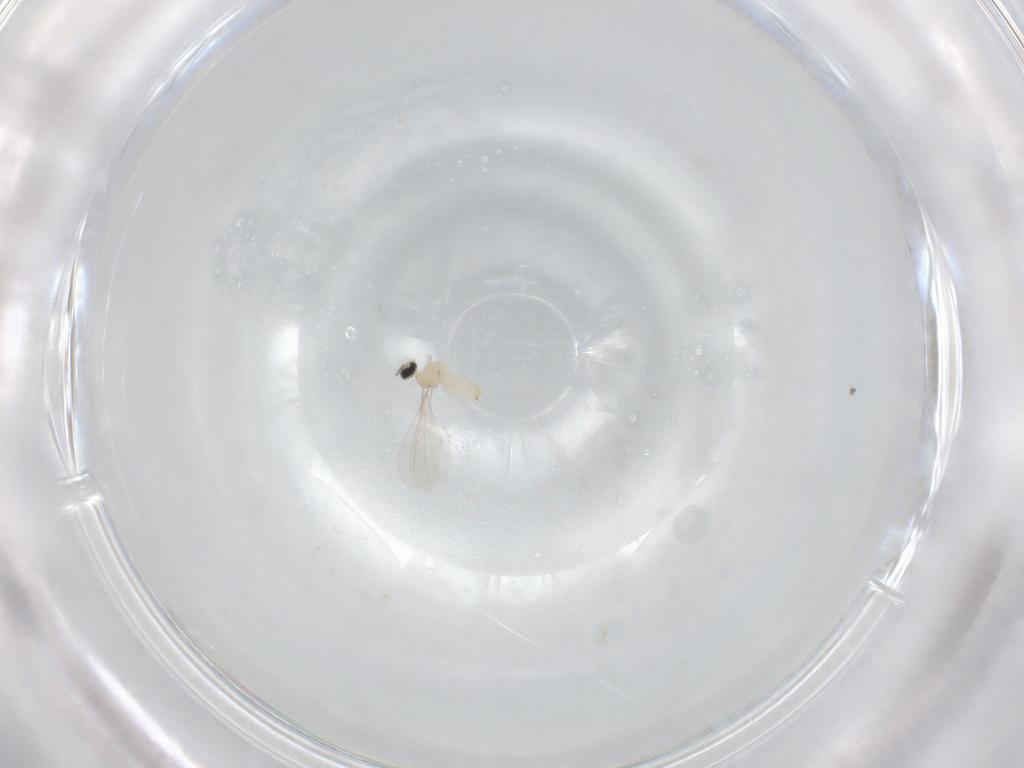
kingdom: Animalia
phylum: Arthropoda
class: Insecta
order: Diptera
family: Cecidomyiidae
